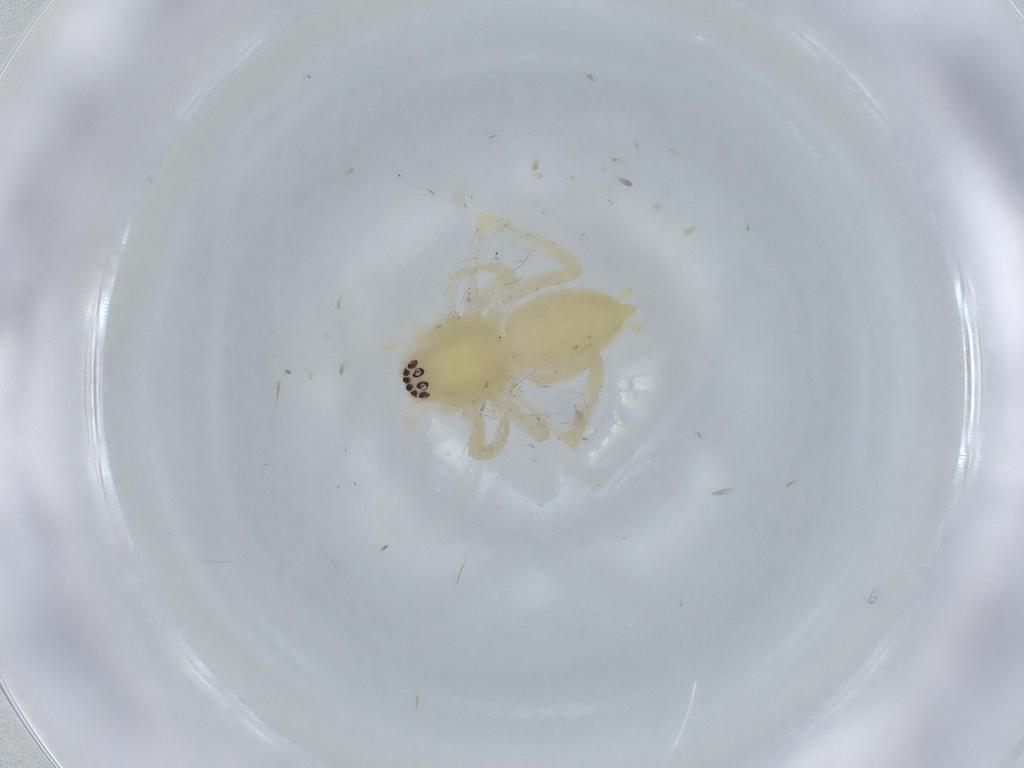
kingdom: Animalia
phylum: Arthropoda
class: Arachnida
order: Araneae
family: Anyphaenidae
